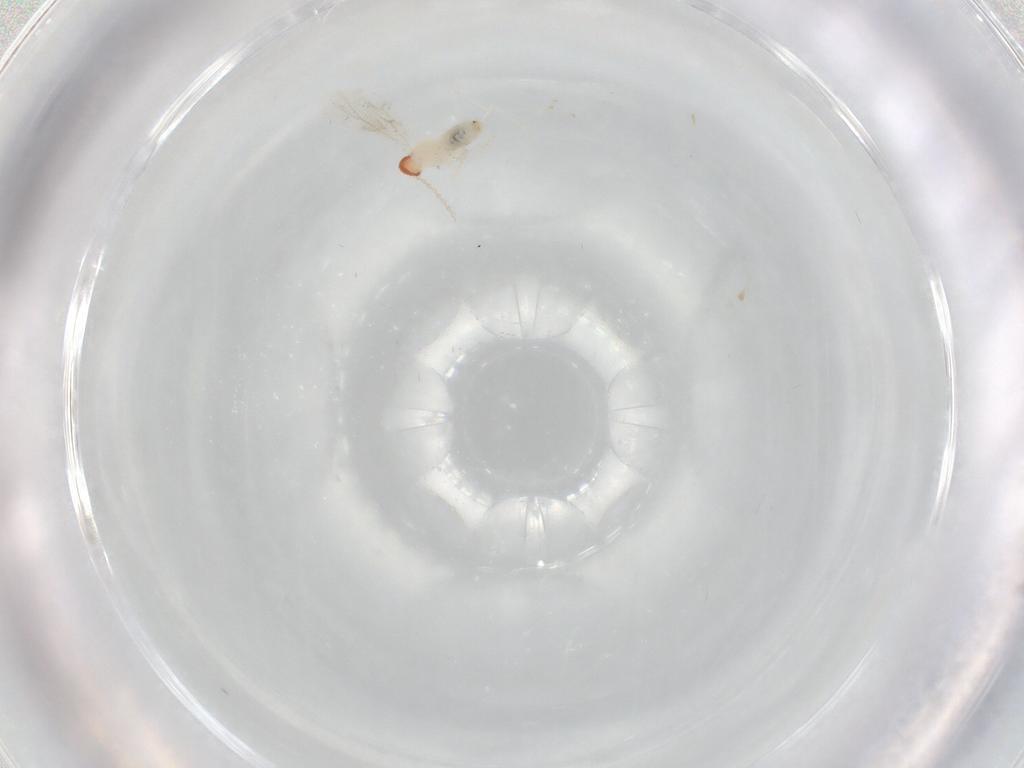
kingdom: Animalia
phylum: Arthropoda
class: Insecta
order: Diptera
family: Cecidomyiidae
